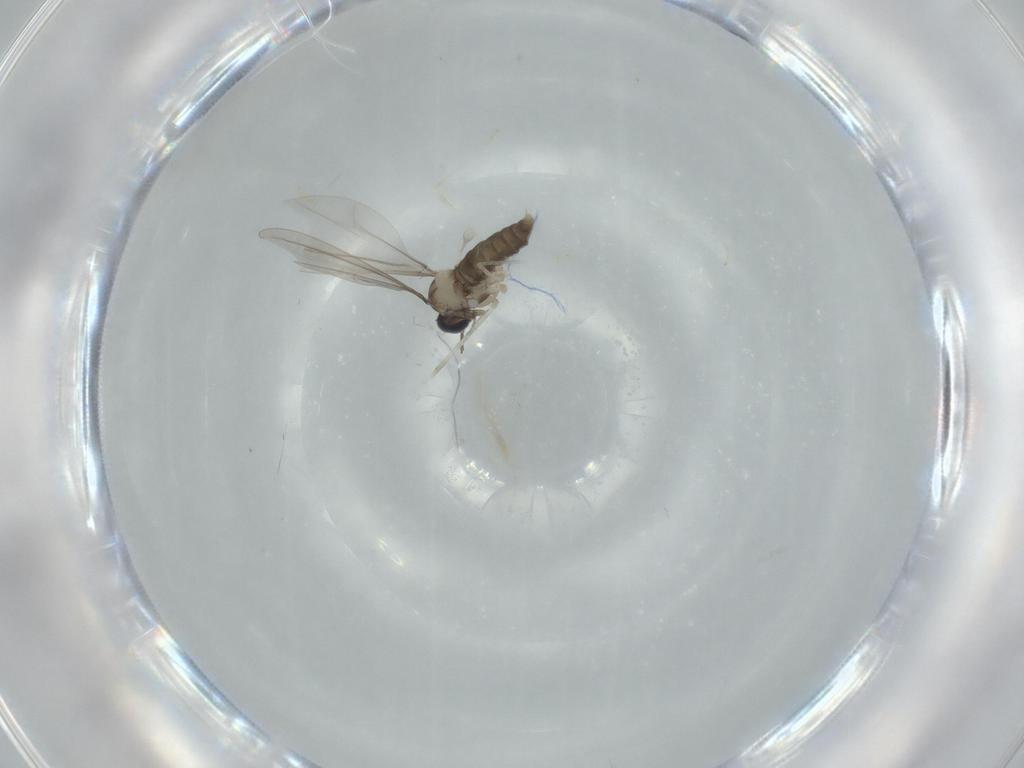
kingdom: Animalia
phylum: Arthropoda
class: Insecta
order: Diptera
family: Cecidomyiidae
